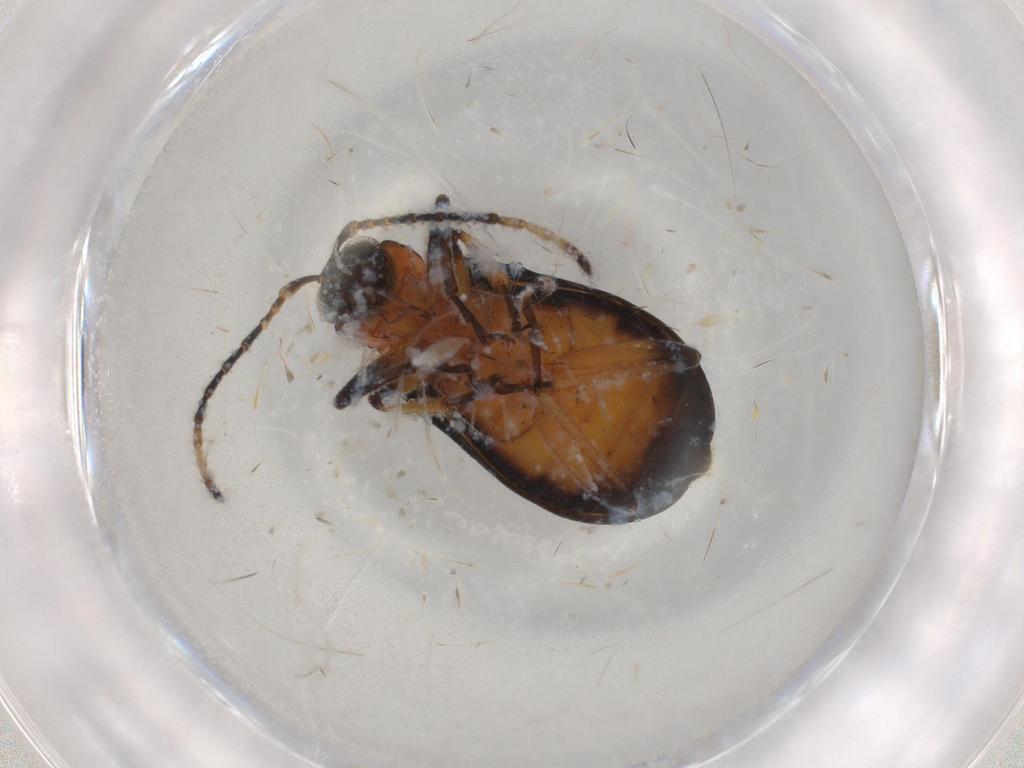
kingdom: Animalia
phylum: Arthropoda
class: Insecta
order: Coleoptera
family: Chrysomelidae
